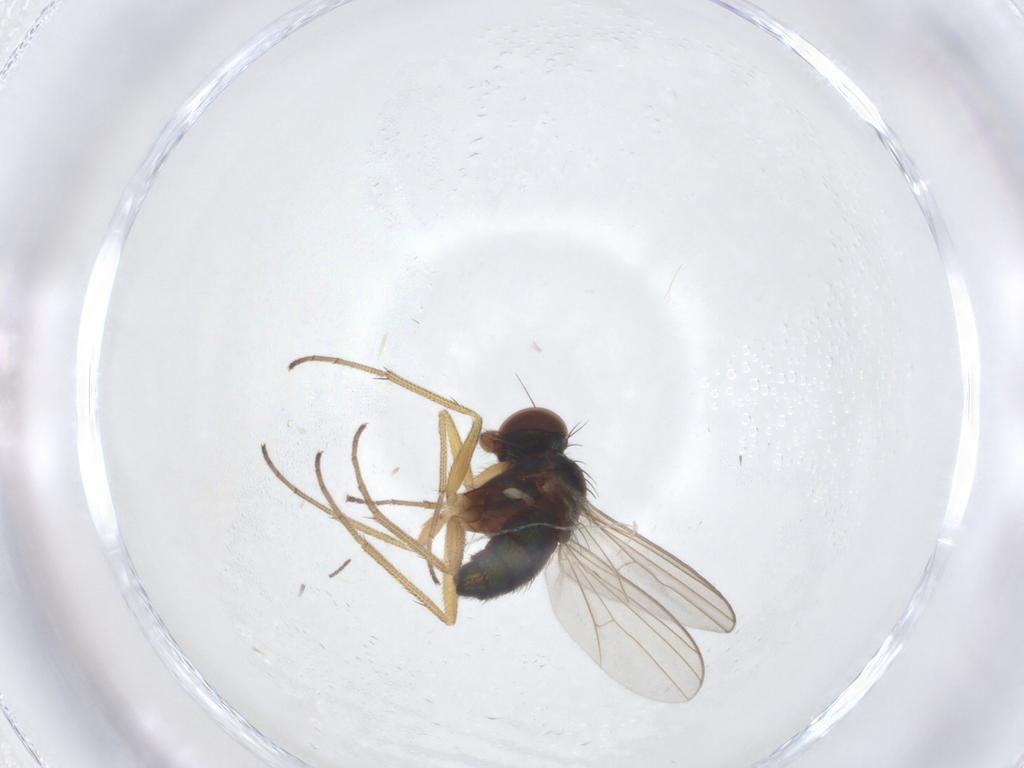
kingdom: Animalia
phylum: Arthropoda
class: Insecta
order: Diptera
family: Dolichopodidae
